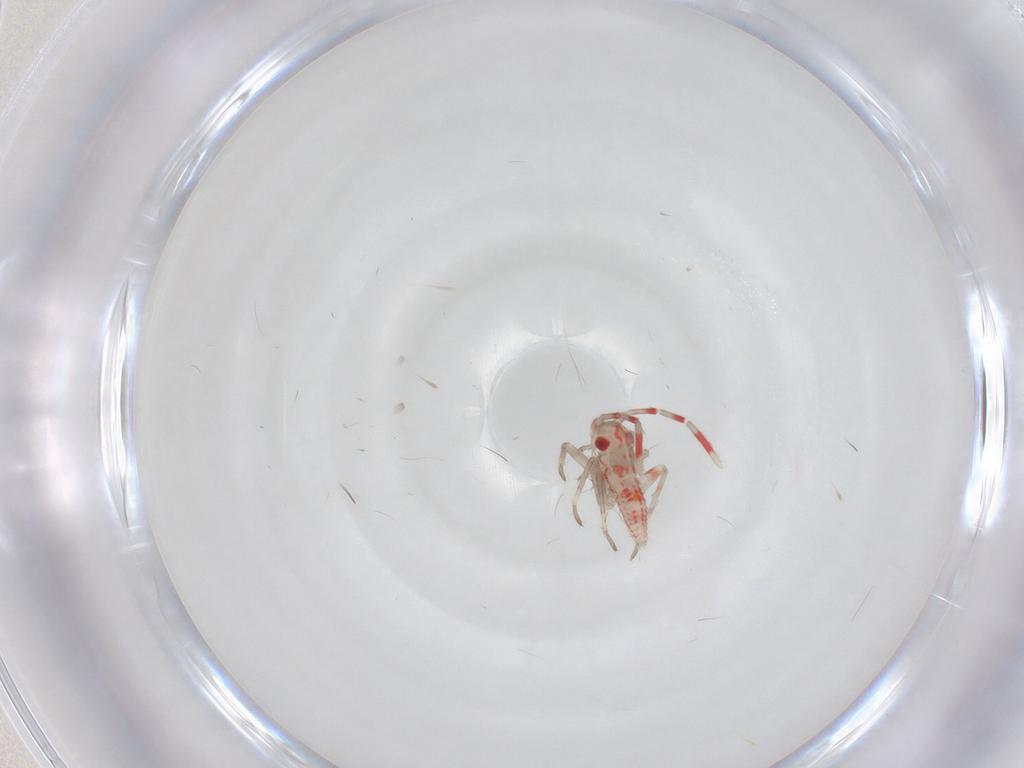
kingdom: Animalia
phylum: Arthropoda
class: Insecta
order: Hemiptera
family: Miridae
